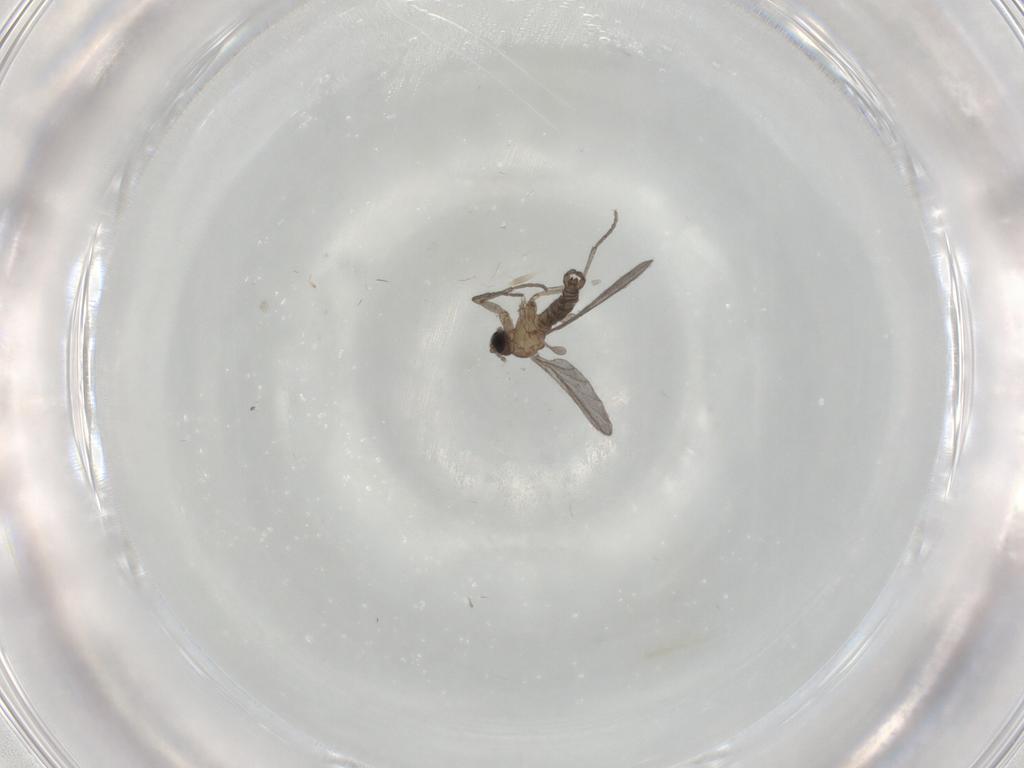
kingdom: Animalia
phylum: Arthropoda
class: Insecta
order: Diptera
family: Sciaridae
